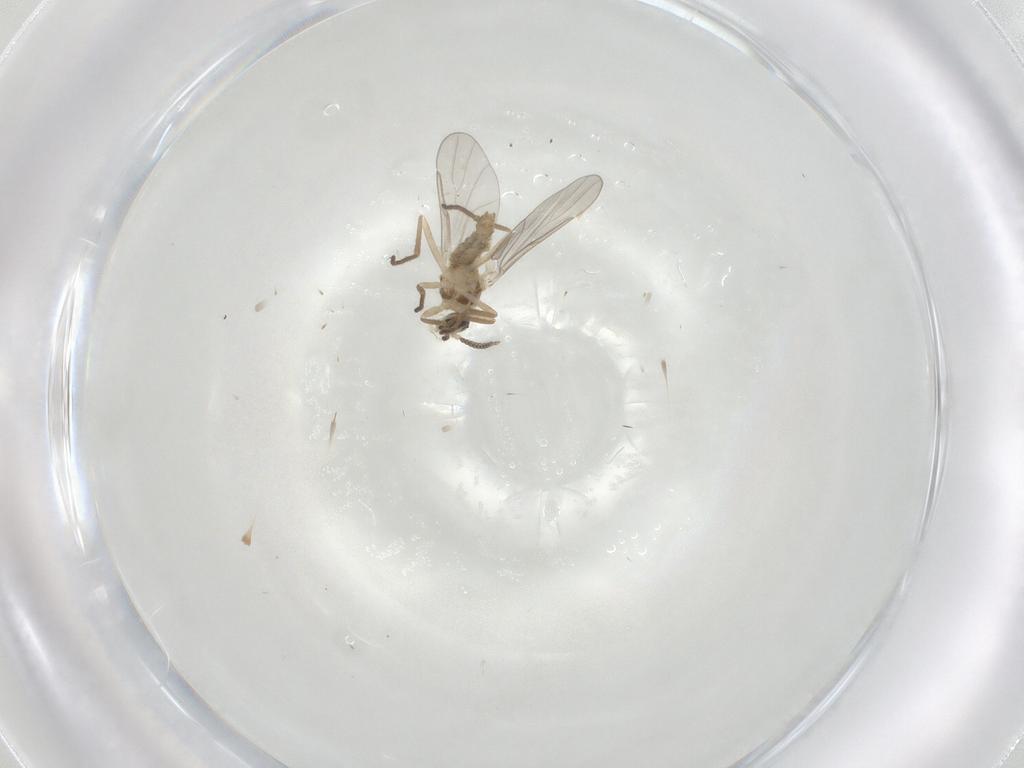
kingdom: Animalia
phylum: Arthropoda
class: Insecta
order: Diptera
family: Cecidomyiidae
